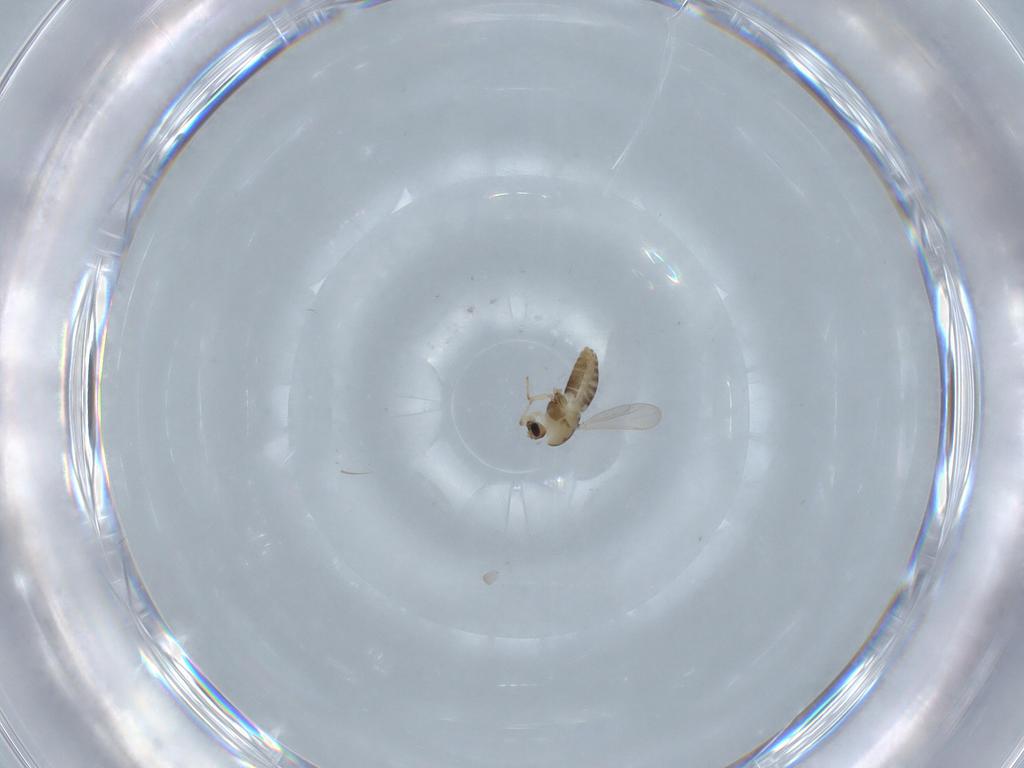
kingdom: Animalia
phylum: Arthropoda
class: Insecta
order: Diptera
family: Chironomidae
